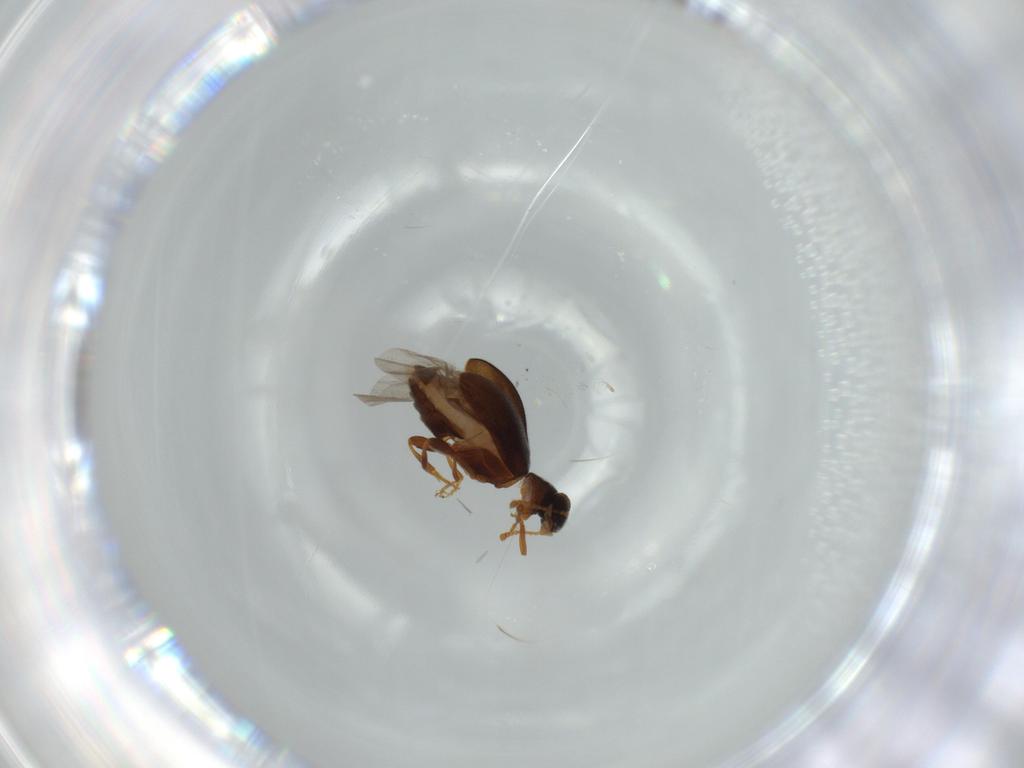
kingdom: Animalia
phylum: Arthropoda
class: Insecta
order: Coleoptera
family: Aderidae
